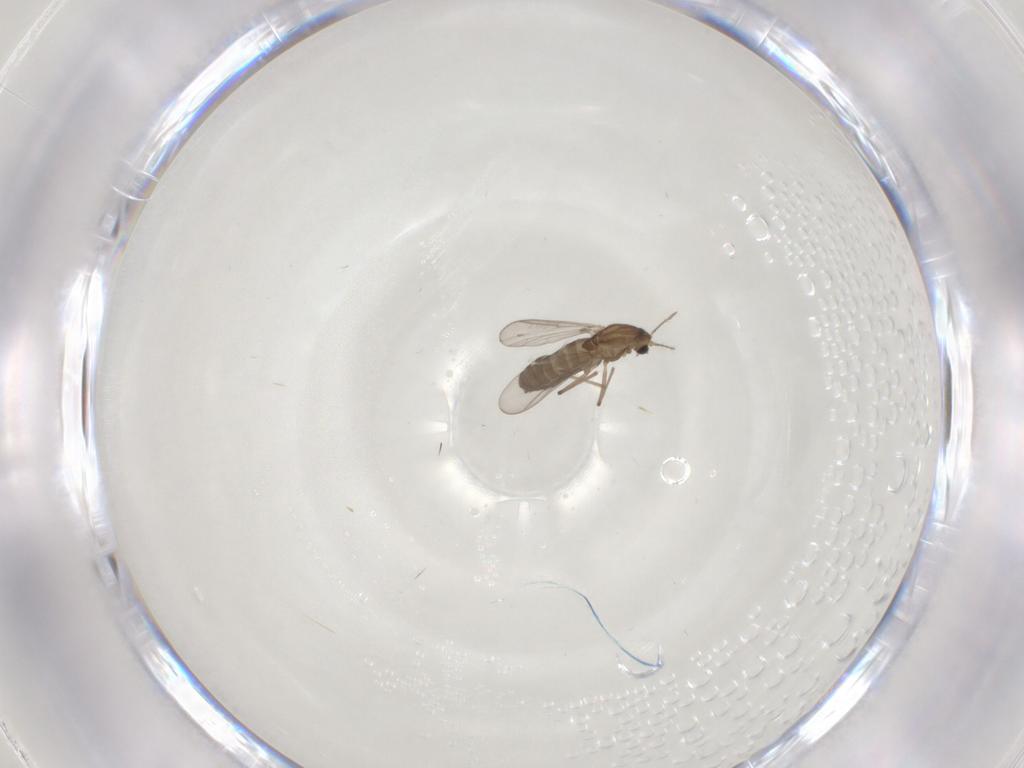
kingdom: Animalia
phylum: Arthropoda
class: Insecta
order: Diptera
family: Chironomidae
